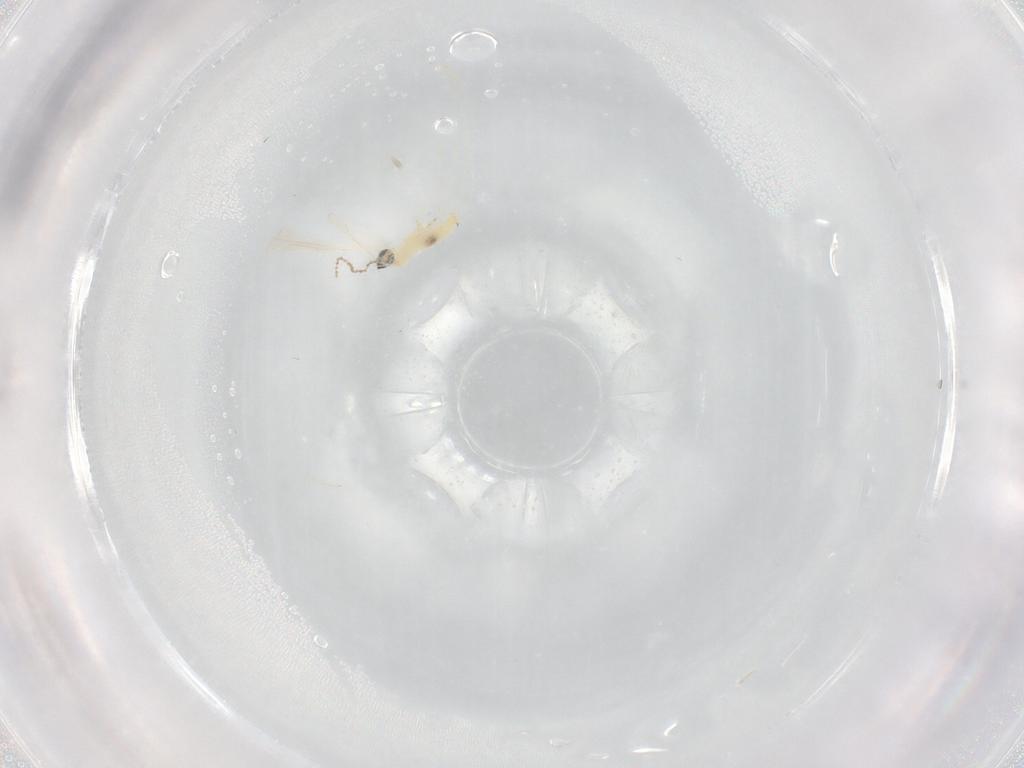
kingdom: Animalia
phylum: Arthropoda
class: Insecta
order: Diptera
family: Cecidomyiidae
